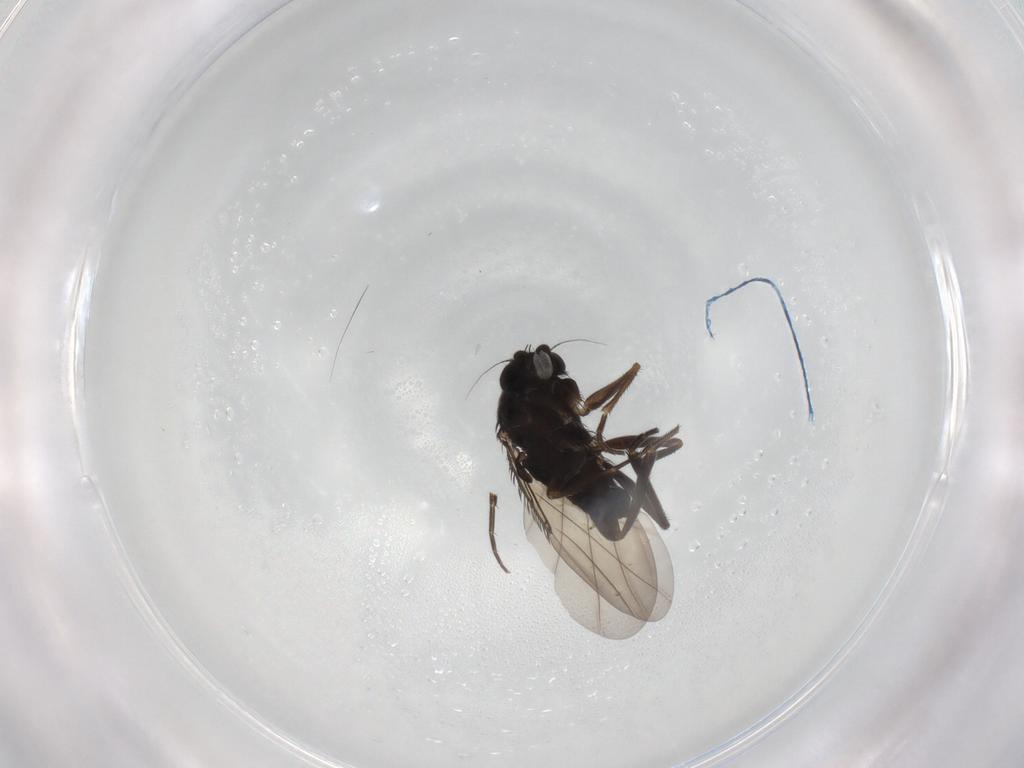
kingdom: Animalia
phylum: Arthropoda
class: Insecta
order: Diptera
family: Phoridae
